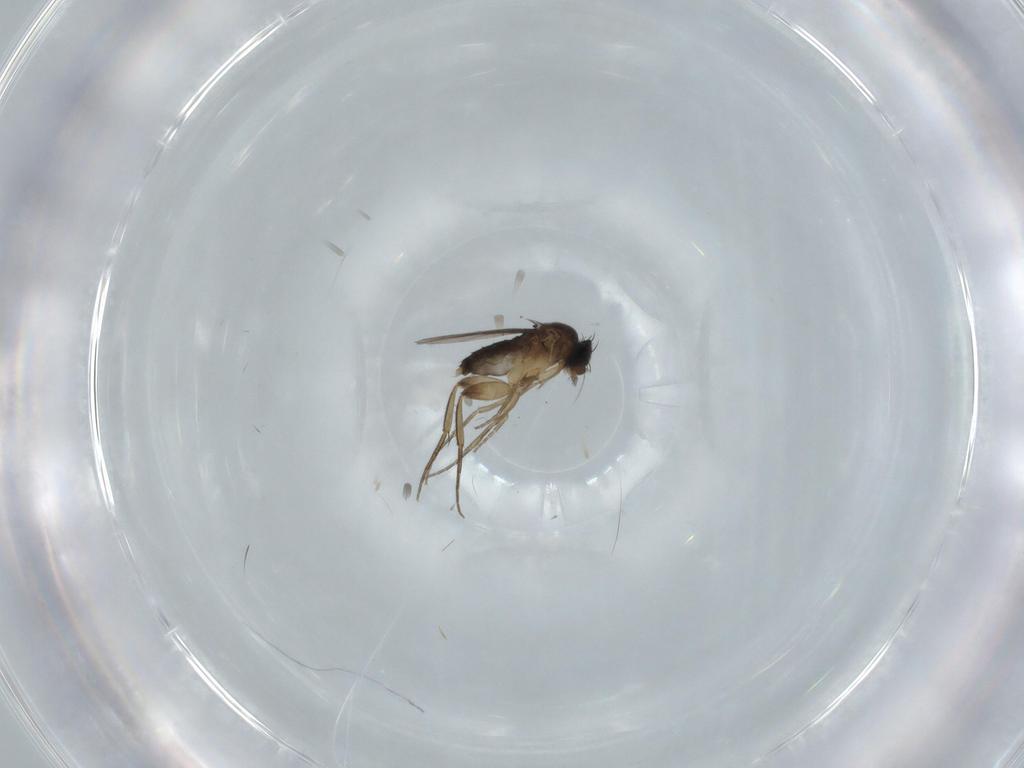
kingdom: Animalia
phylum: Arthropoda
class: Insecta
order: Diptera
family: Phoridae
